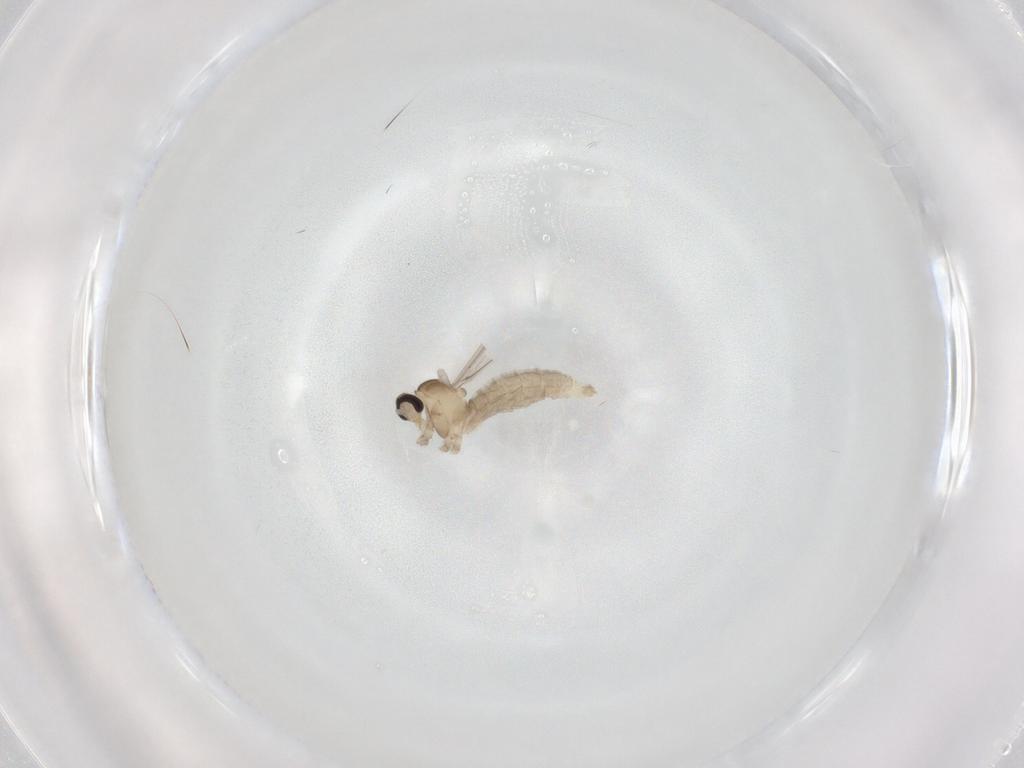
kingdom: Animalia
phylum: Arthropoda
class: Insecta
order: Diptera
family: Cecidomyiidae
